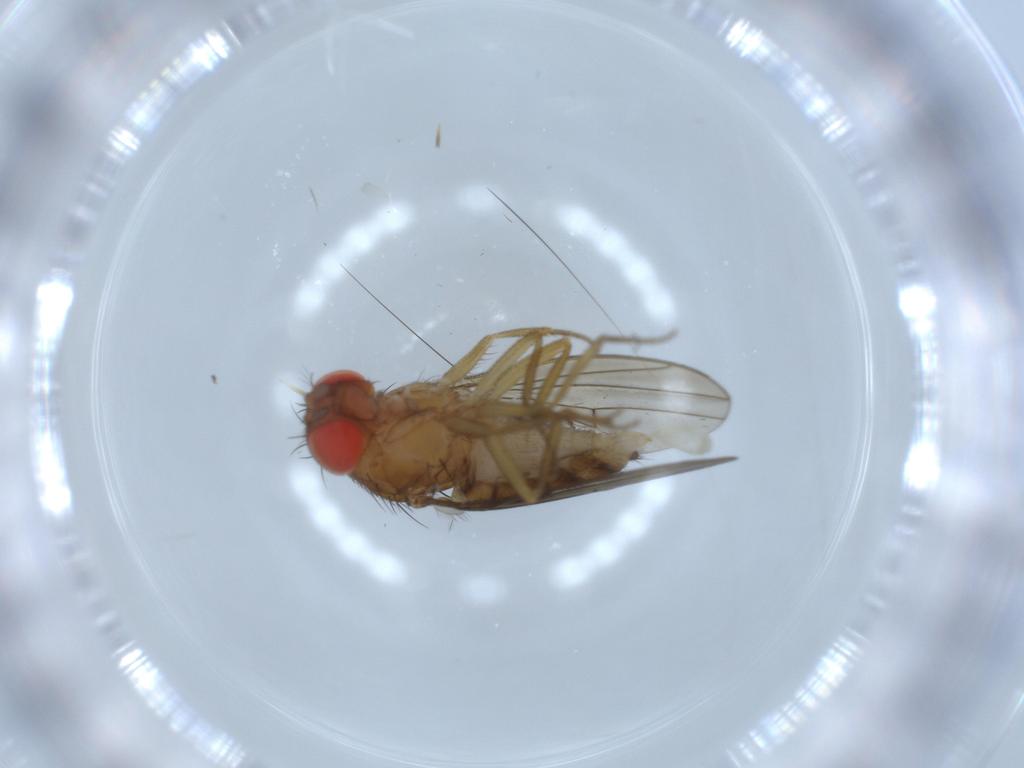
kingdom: Animalia
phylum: Arthropoda
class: Insecta
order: Diptera
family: Drosophilidae
